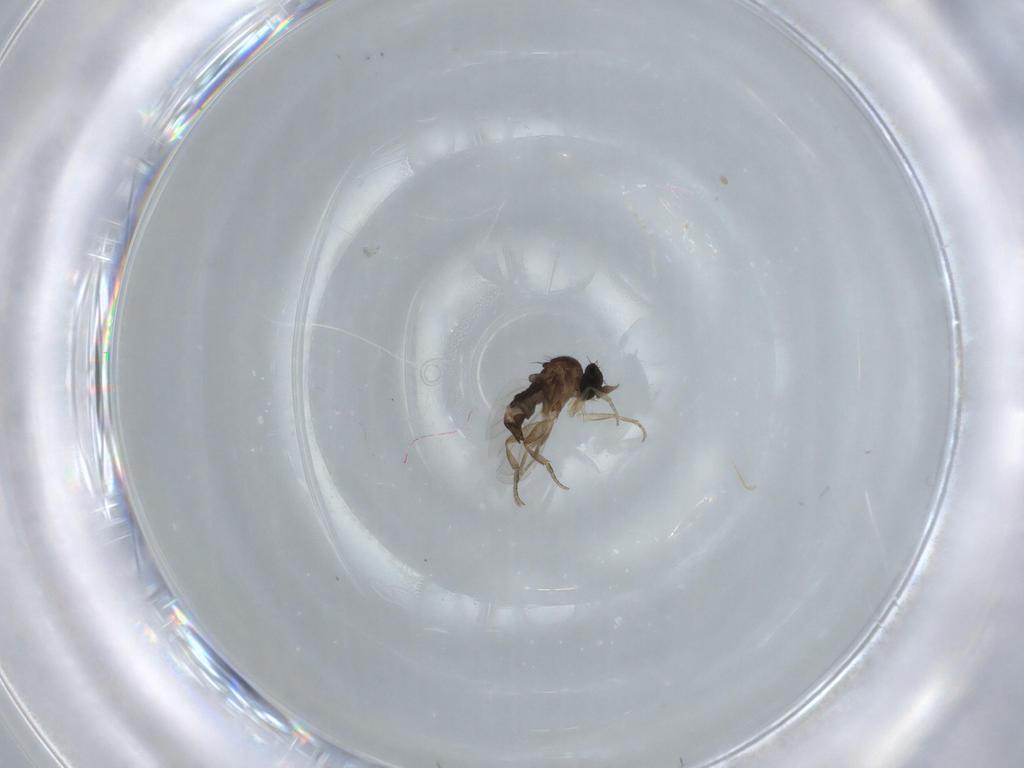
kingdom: Animalia
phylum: Arthropoda
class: Insecta
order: Diptera
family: Phoridae
